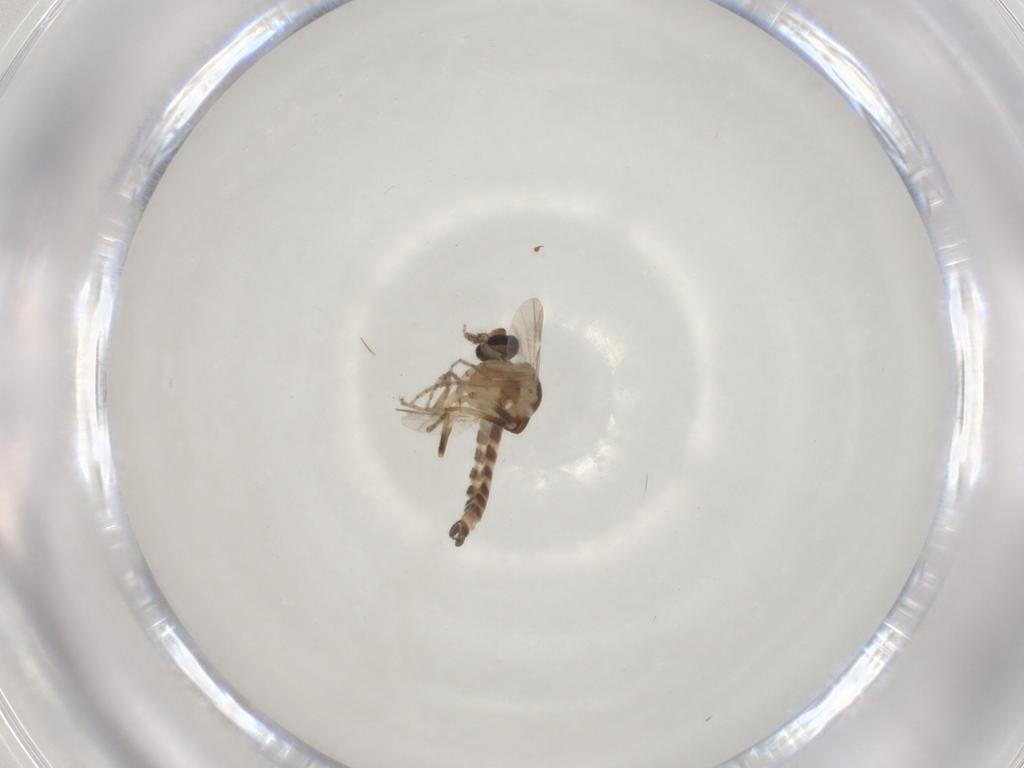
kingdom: Animalia
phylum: Arthropoda
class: Insecta
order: Diptera
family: Ceratopogonidae
